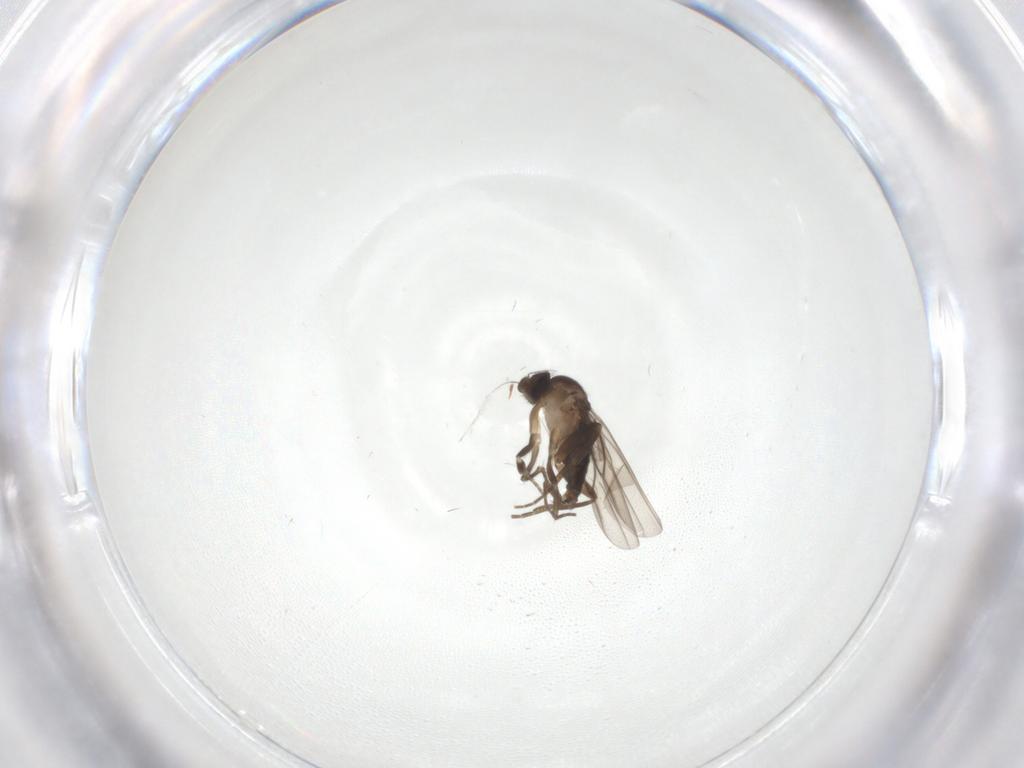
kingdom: Animalia
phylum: Arthropoda
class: Insecta
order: Diptera
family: Phoridae
